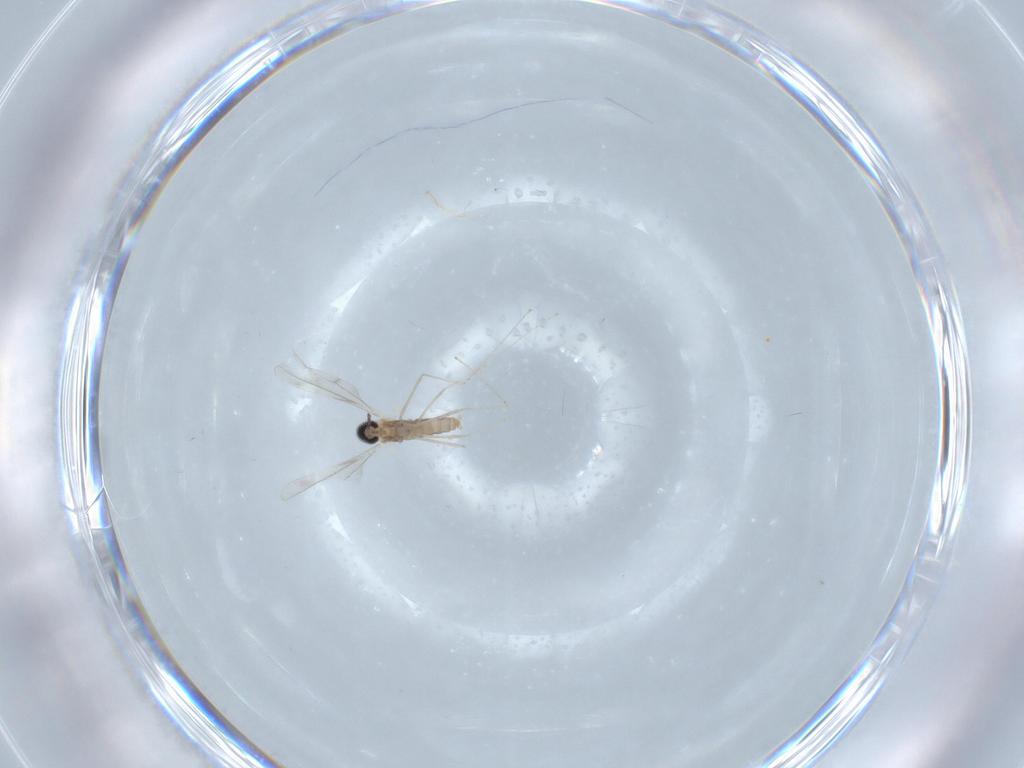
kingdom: Animalia
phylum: Arthropoda
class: Insecta
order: Diptera
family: Cecidomyiidae
